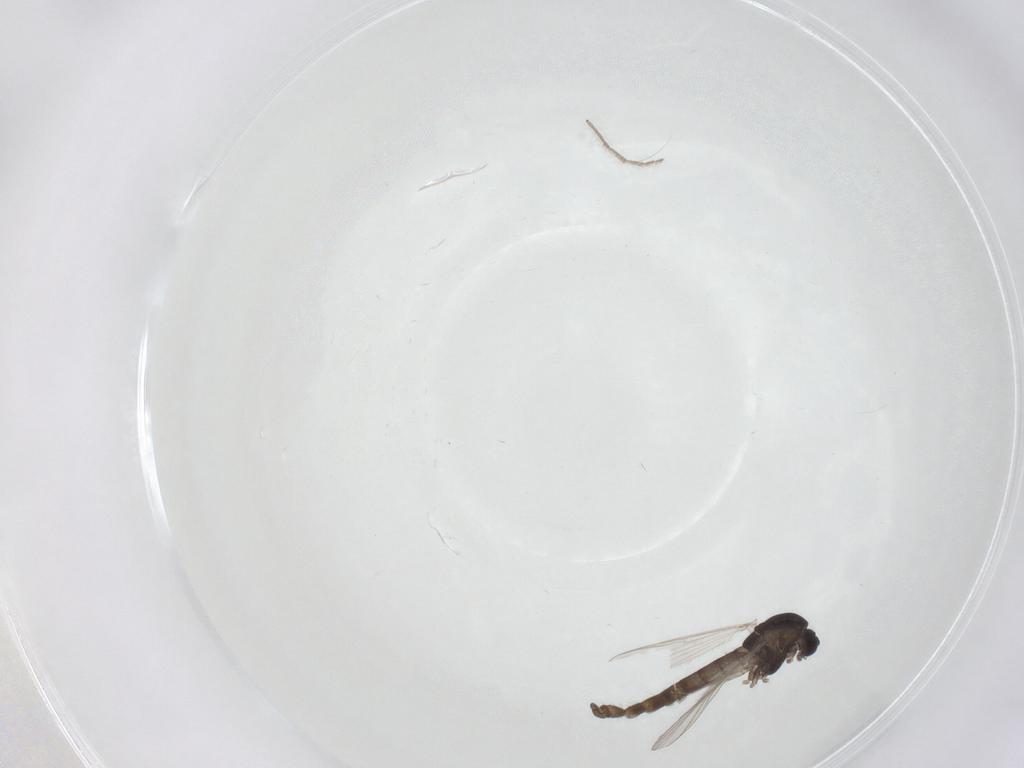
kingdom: Animalia
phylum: Arthropoda
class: Insecta
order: Diptera
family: Chironomidae
